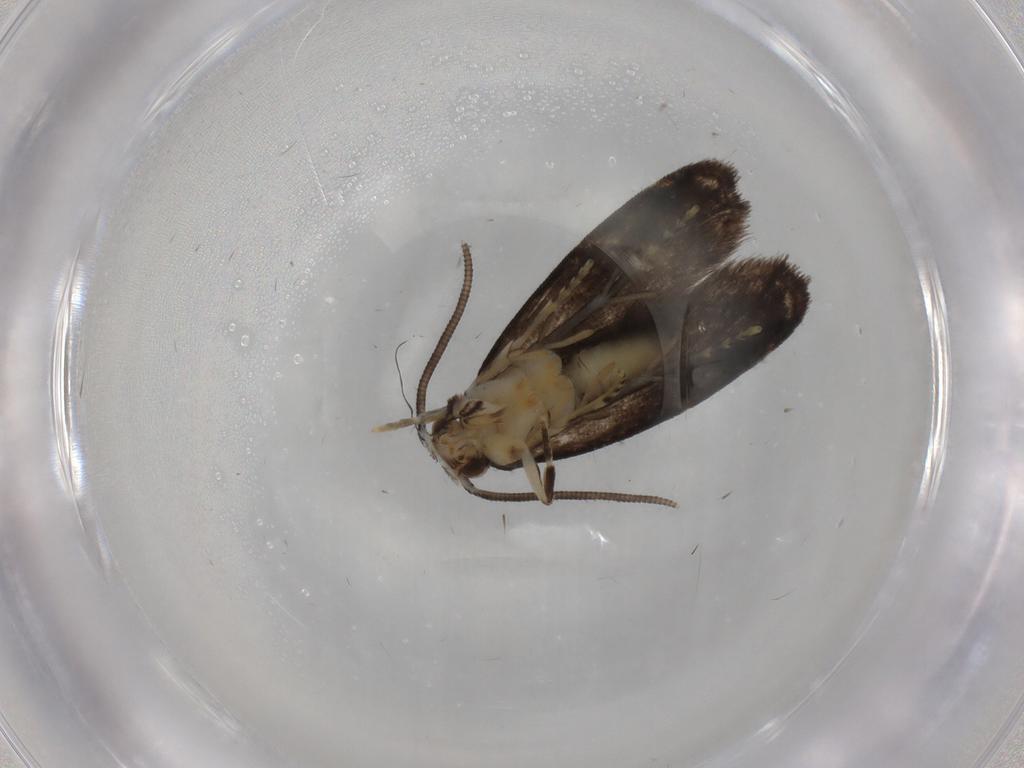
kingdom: Animalia
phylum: Arthropoda
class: Insecta
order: Lepidoptera
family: Dryadaulidae
